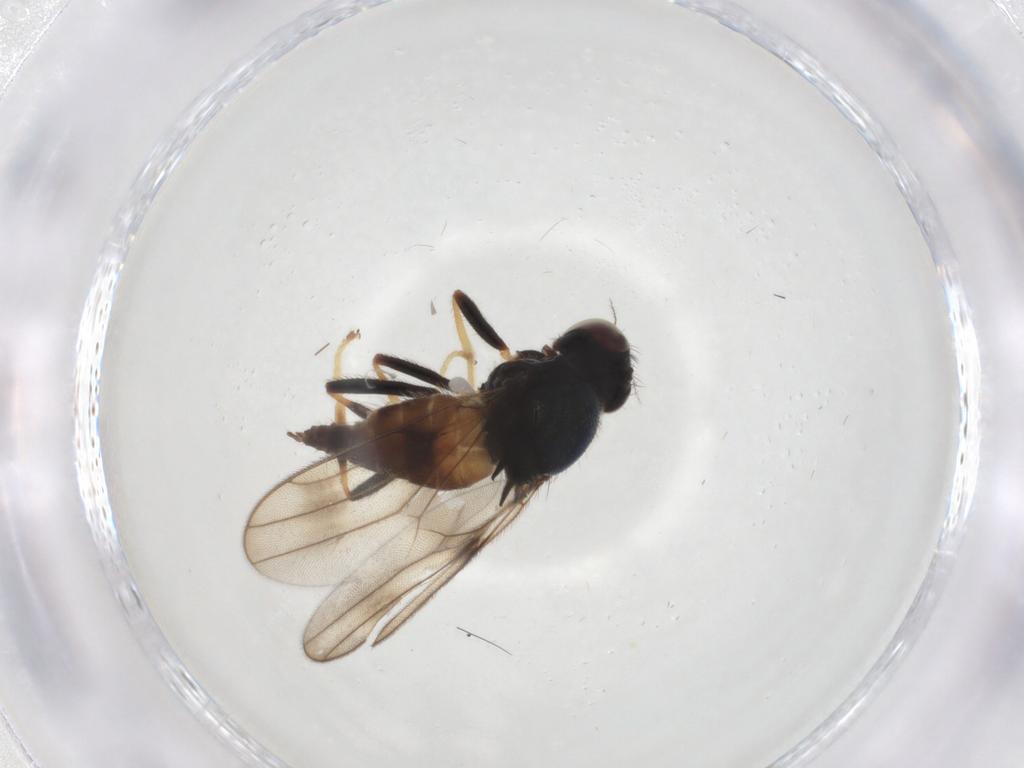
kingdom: Animalia
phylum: Arthropoda
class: Insecta
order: Diptera
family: Chloropidae
